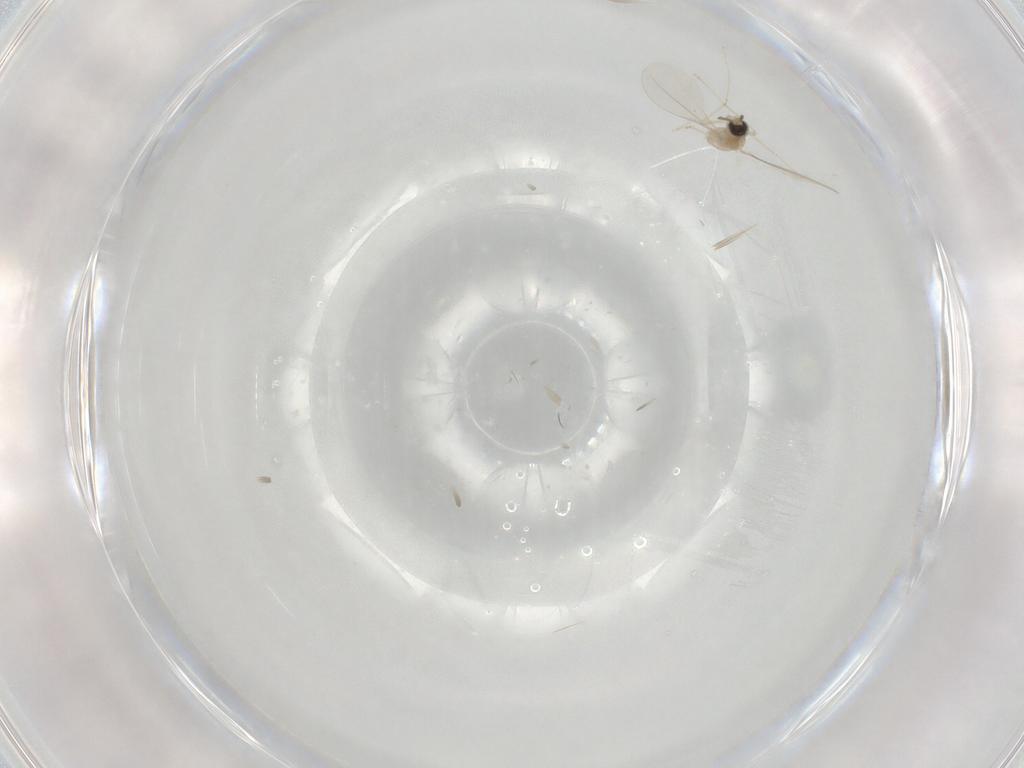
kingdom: Animalia
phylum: Arthropoda
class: Insecta
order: Diptera
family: Cecidomyiidae
